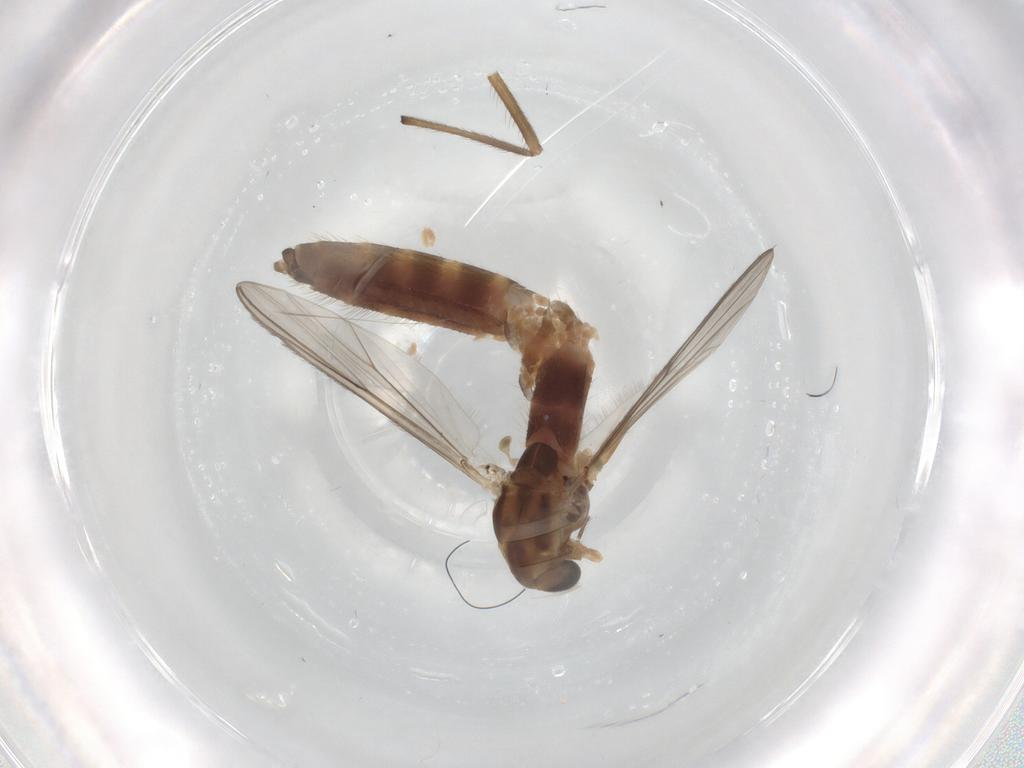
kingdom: Animalia
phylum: Arthropoda
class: Insecta
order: Diptera
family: Chironomidae
